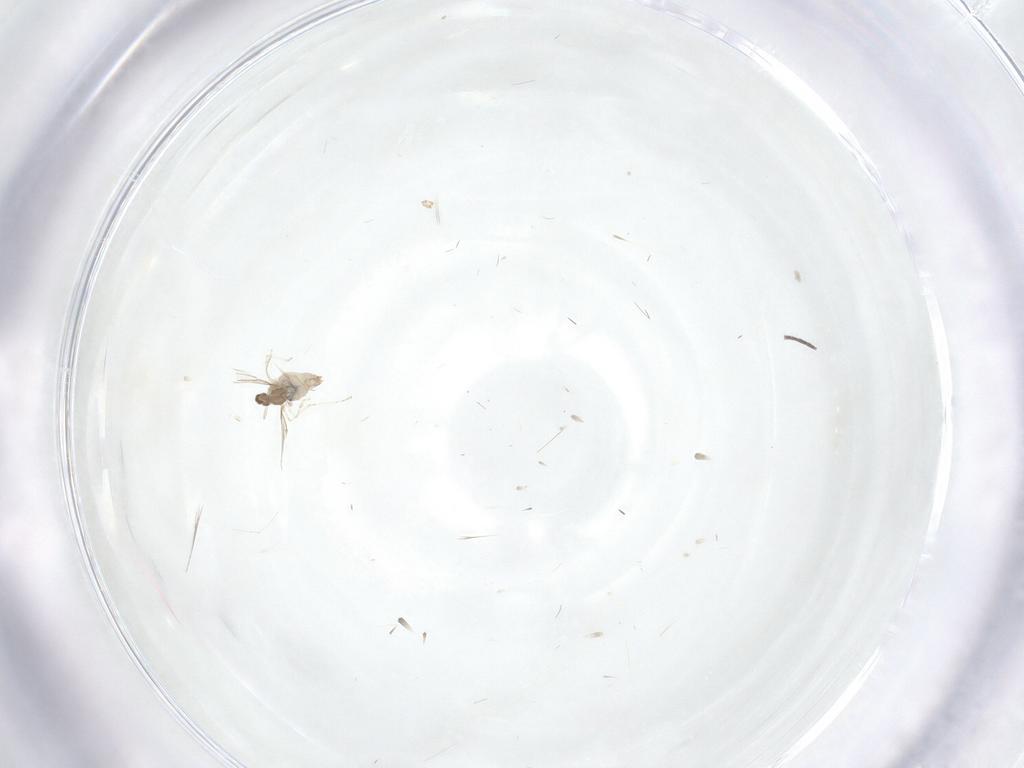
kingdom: Animalia
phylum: Arthropoda
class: Insecta
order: Diptera
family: Cecidomyiidae
